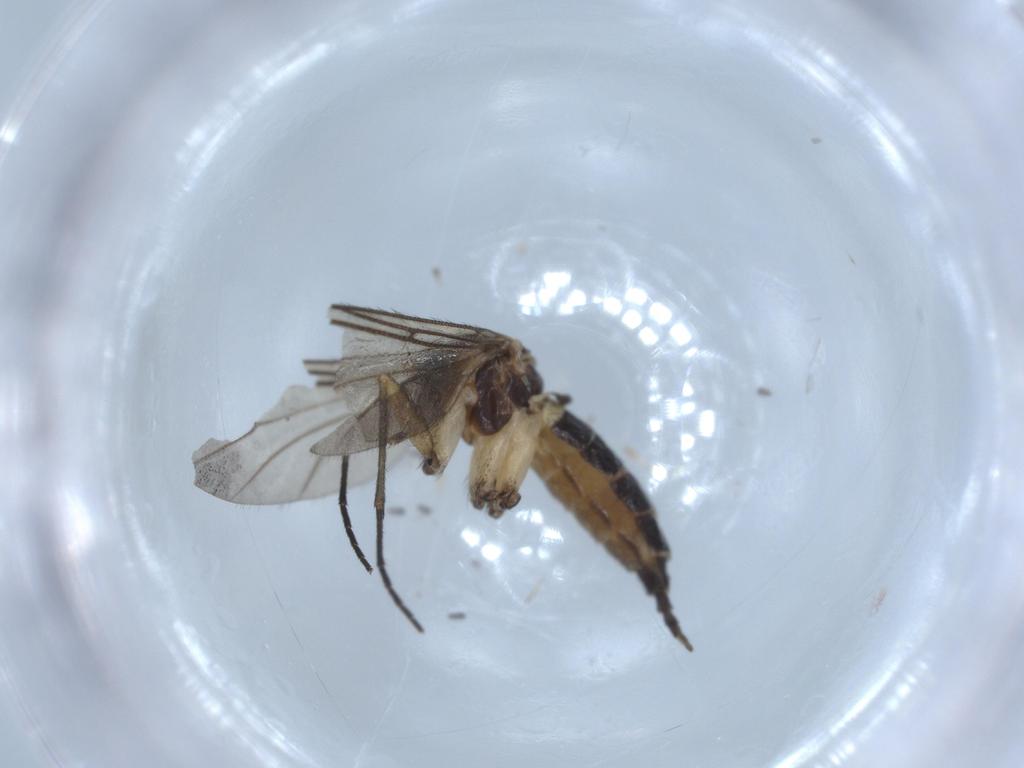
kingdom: Animalia
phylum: Arthropoda
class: Insecta
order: Diptera
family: Sciaridae
